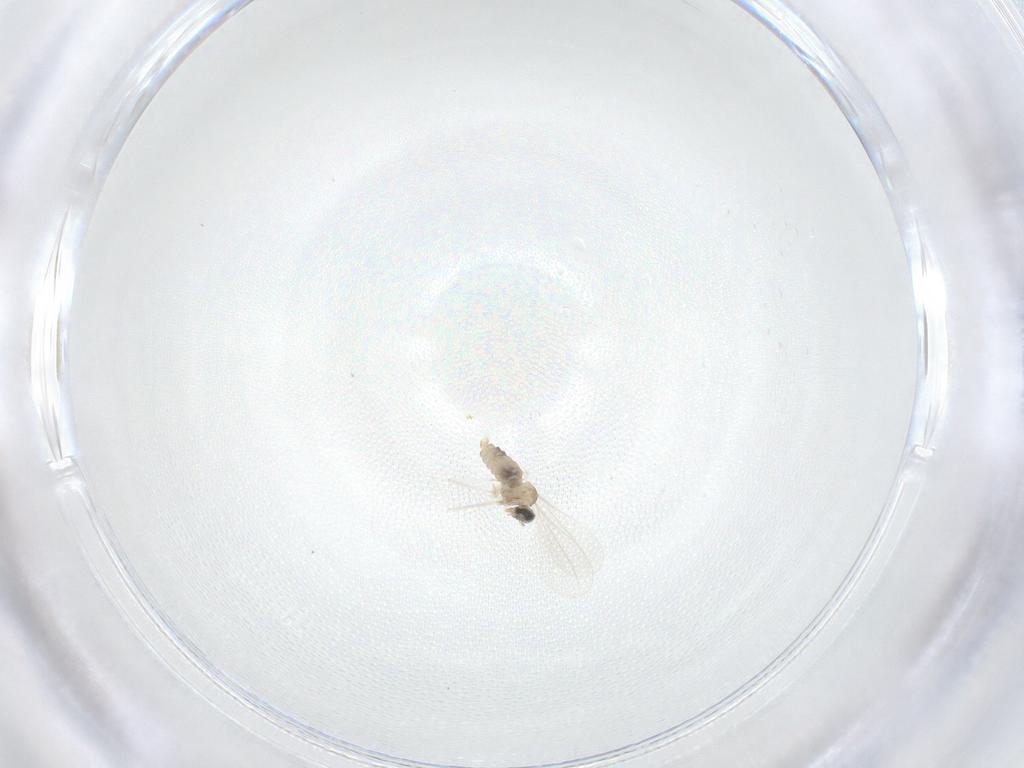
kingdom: Animalia
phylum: Arthropoda
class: Insecta
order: Diptera
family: Cecidomyiidae
